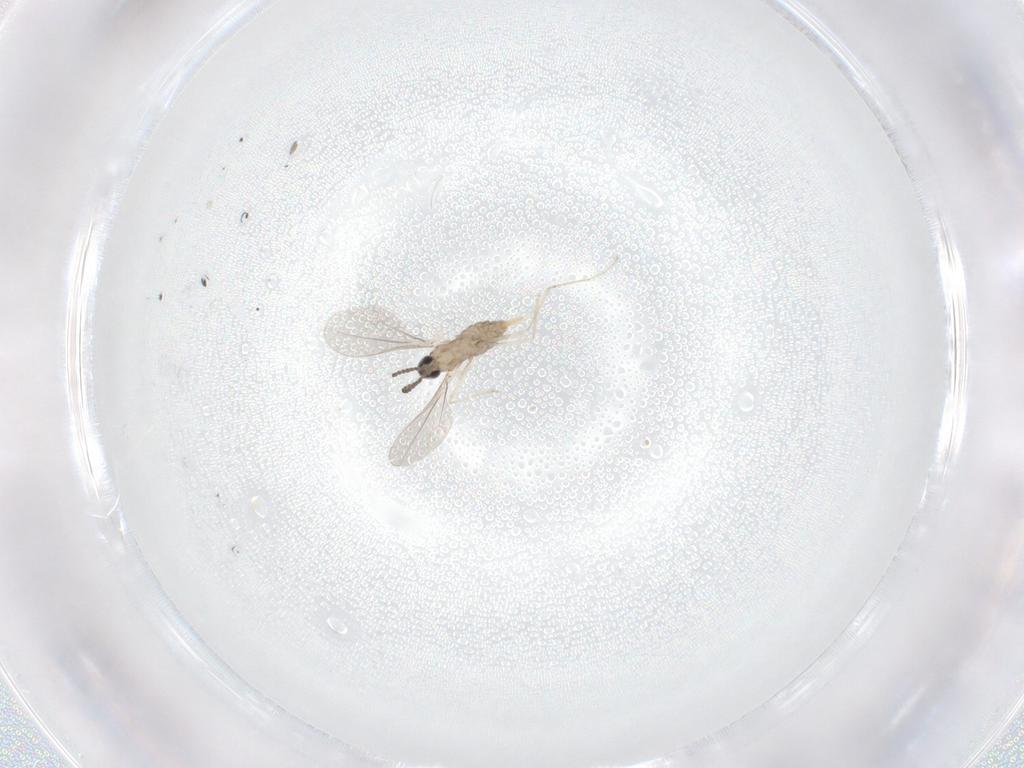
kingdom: Animalia
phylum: Arthropoda
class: Insecta
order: Diptera
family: Cecidomyiidae
